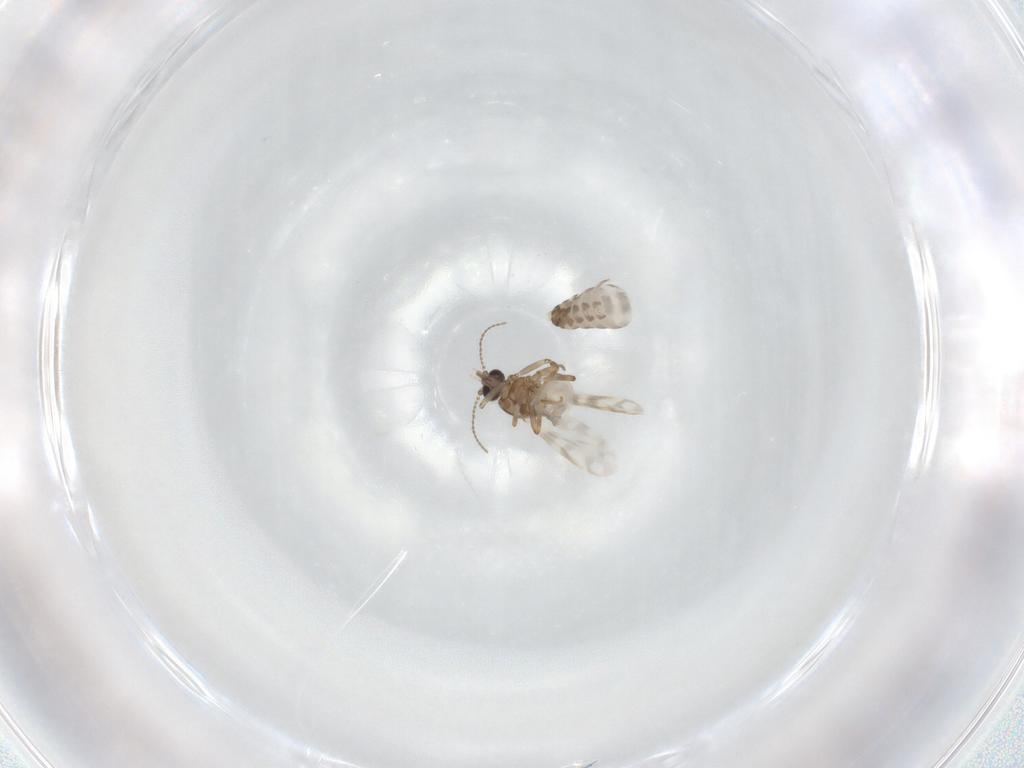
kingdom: Animalia
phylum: Arthropoda
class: Insecta
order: Diptera
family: Ceratopogonidae
